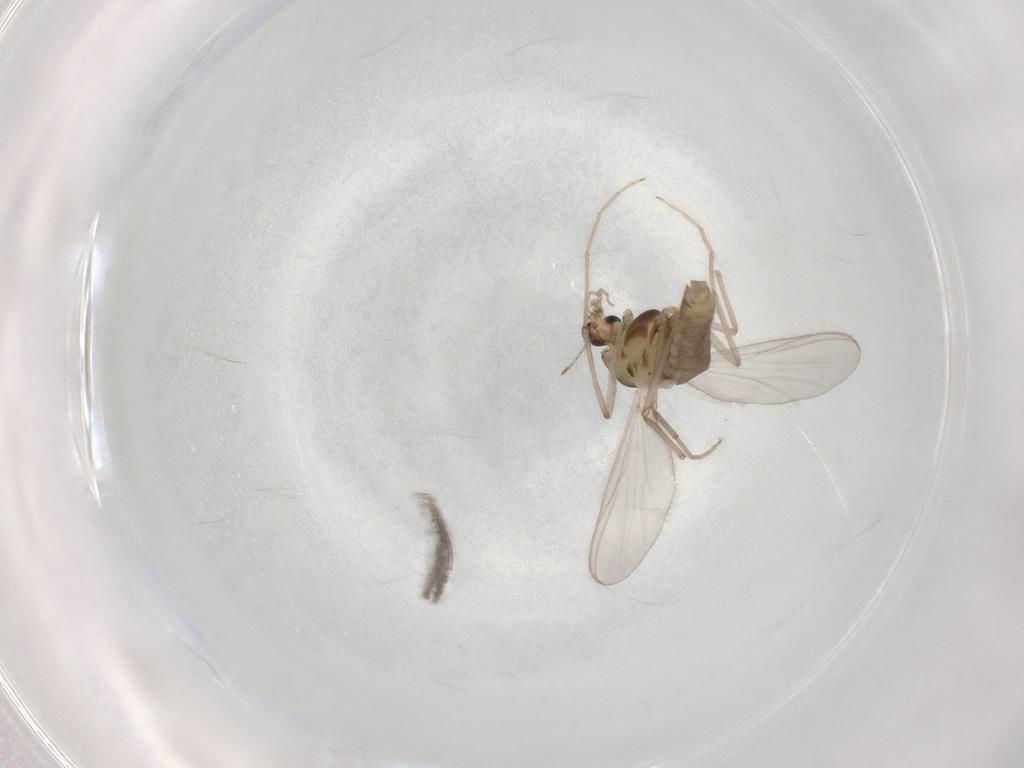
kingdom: Animalia
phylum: Arthropoda
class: Insecta
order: Diptera
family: Chironomidae
